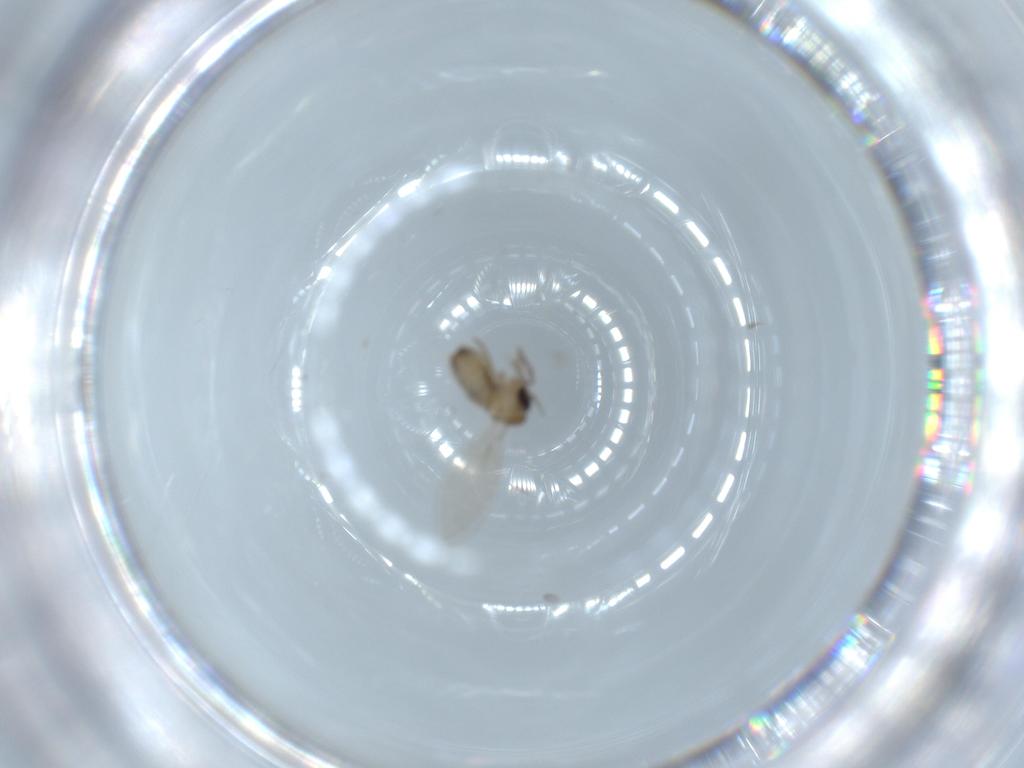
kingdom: Animalia
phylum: Arthropoda
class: Insecta
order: Diptera
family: Psychodidae
